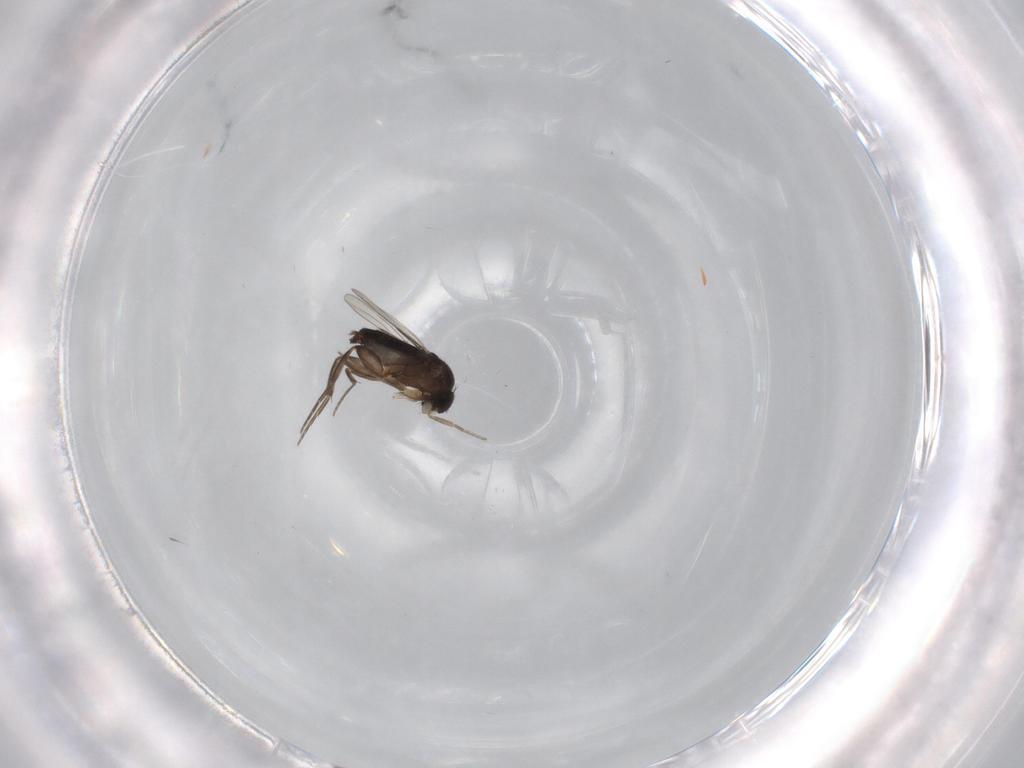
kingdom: Animalia
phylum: Arthropoda
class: Insecta
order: Diptera
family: Phoridae
